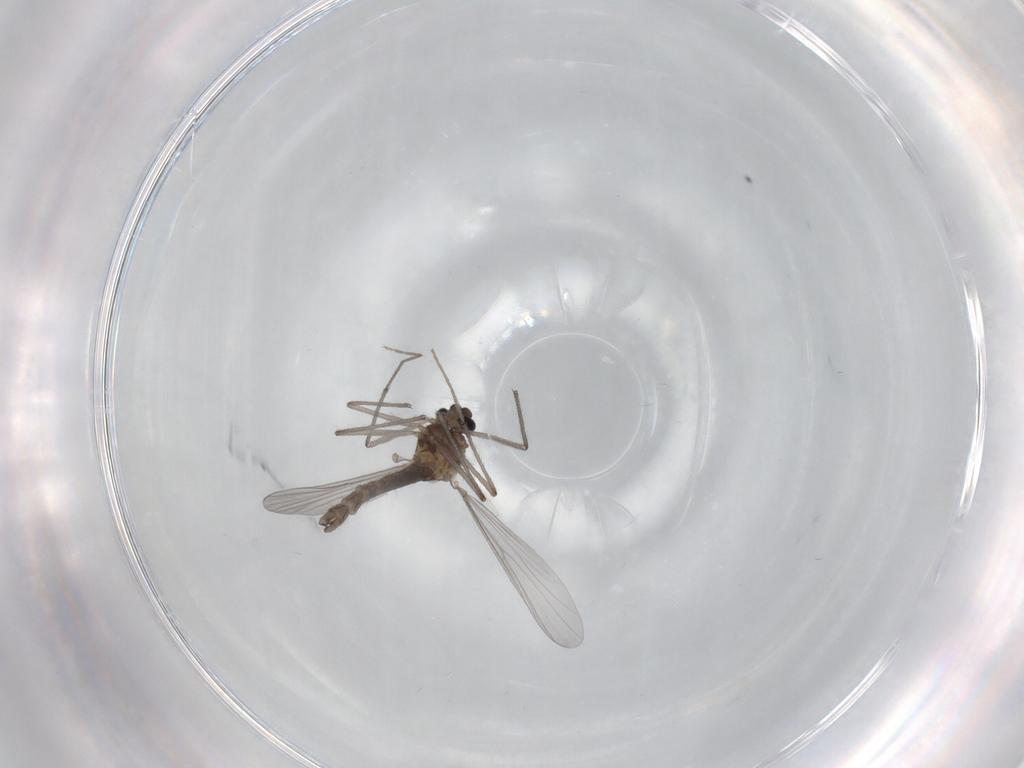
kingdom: Animalia
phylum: Arthropoda
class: Insecta
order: Diptera
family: Chironomidae
